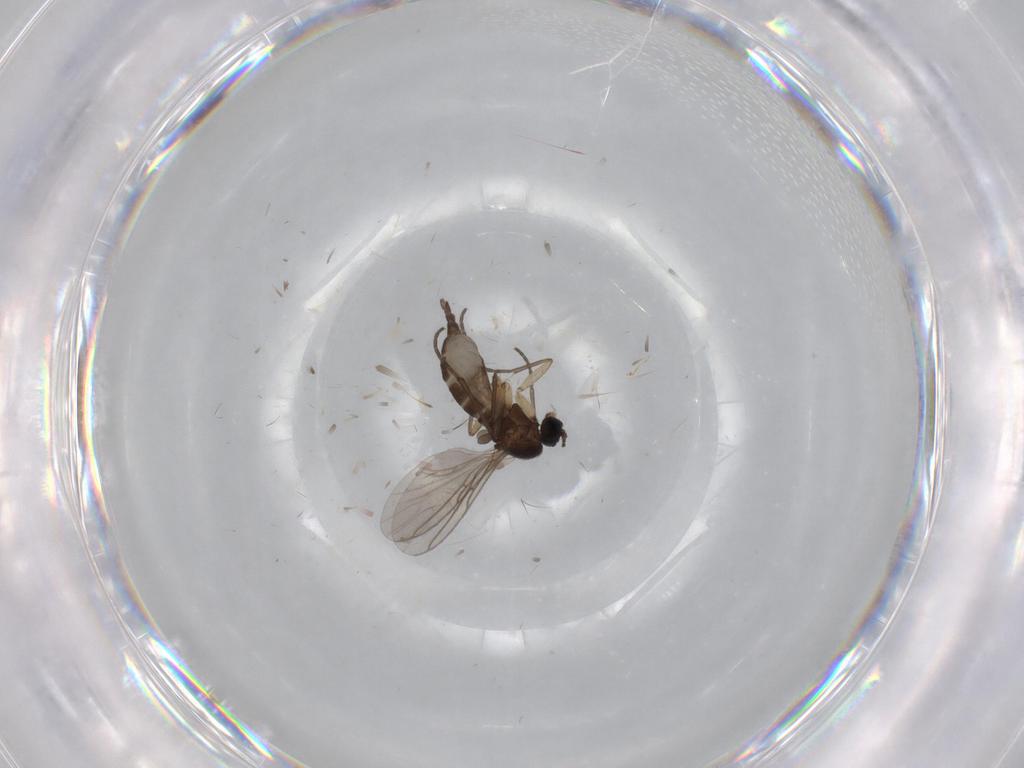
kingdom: Animalia
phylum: Arthropoda
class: Insecta
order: Diptera
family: Sciaridae
